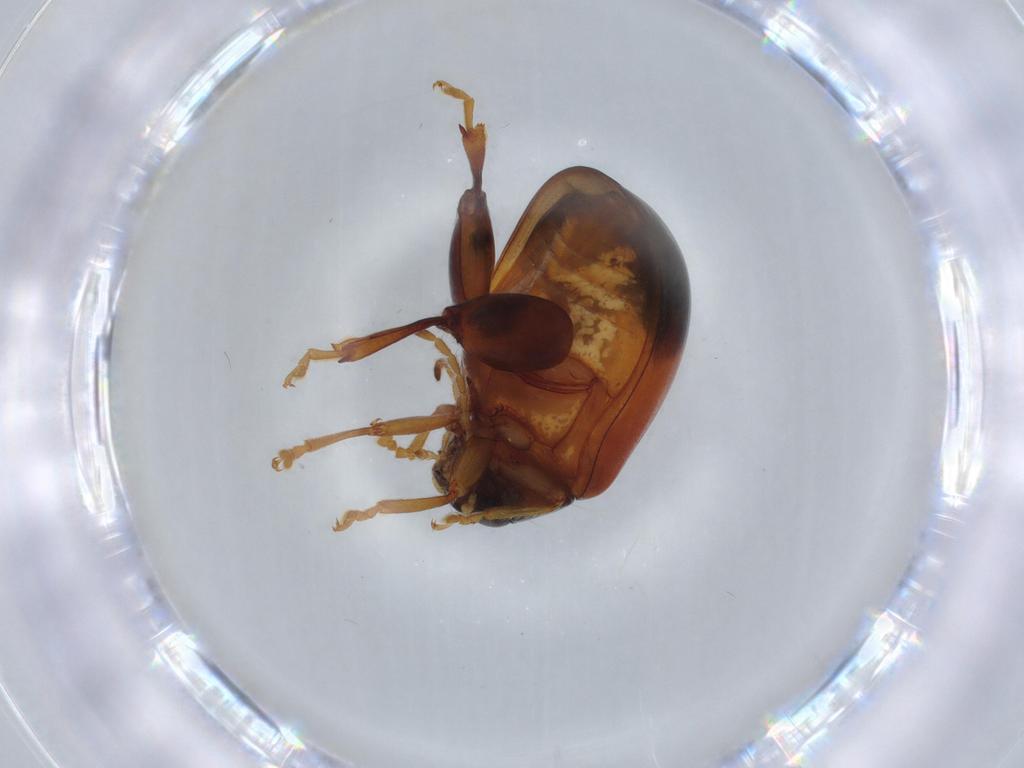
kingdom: Animalia
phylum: Arthropoda
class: Insecta
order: Coleoptera
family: Chrysomelidae
